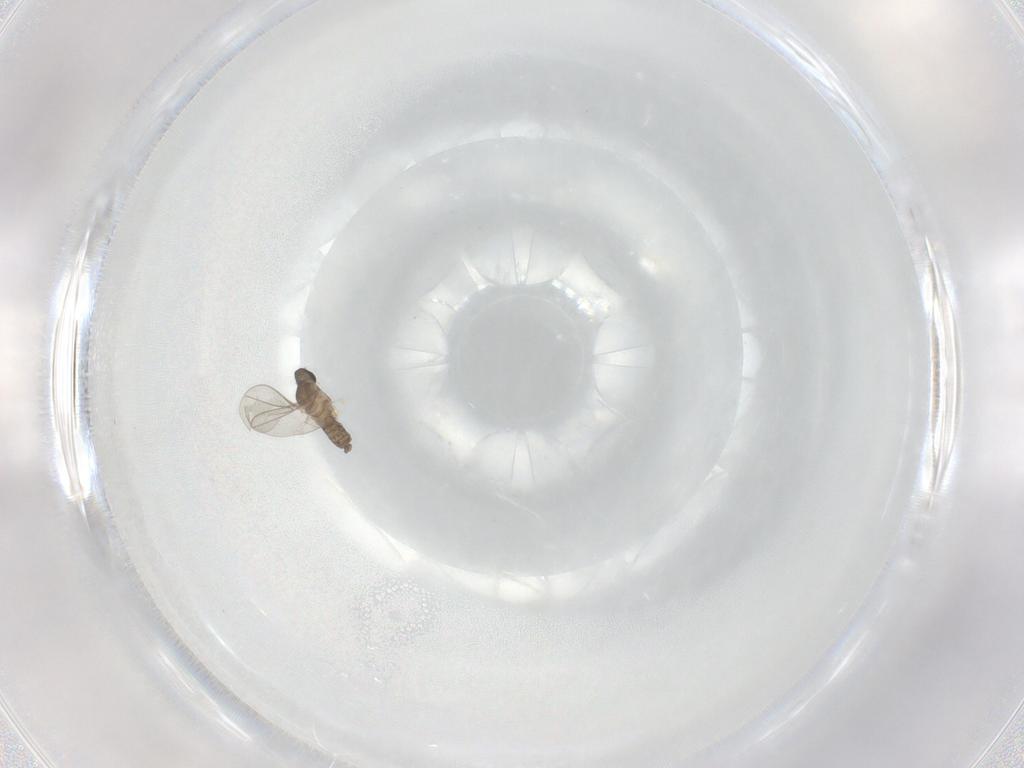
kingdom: Animalia
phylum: Arthropoda
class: Insecta
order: Diptera
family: Cecidomyiidae
